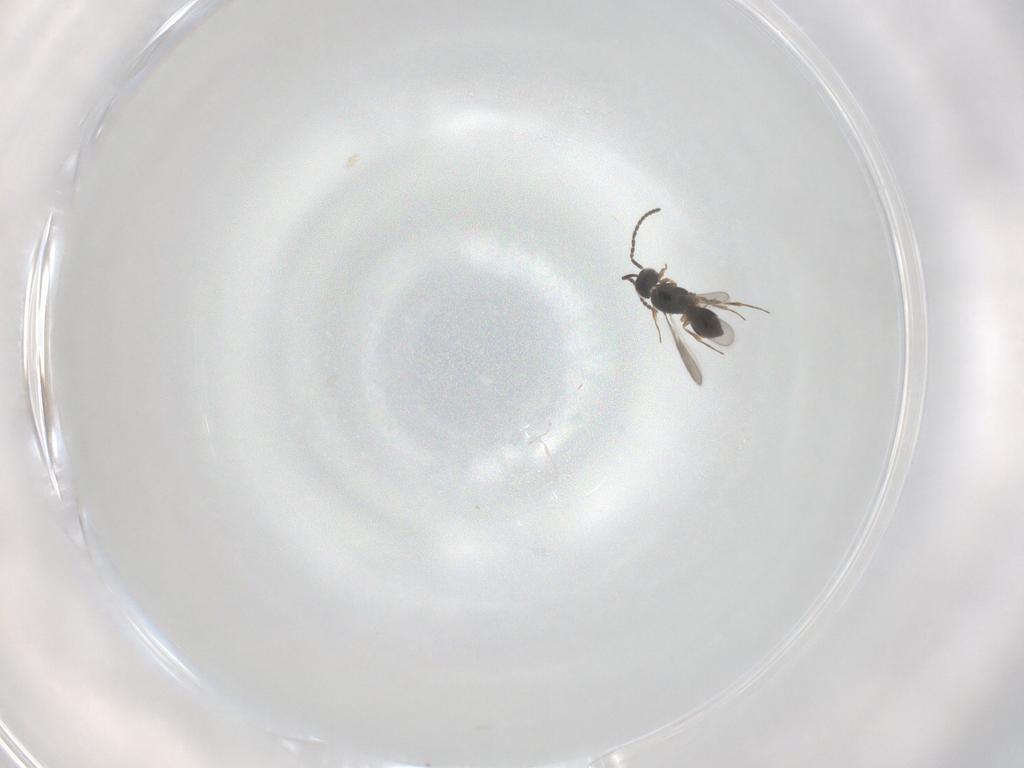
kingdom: Animalia
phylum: Arthropoda
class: Insecta
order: Hymenoptera
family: Scelionidae
